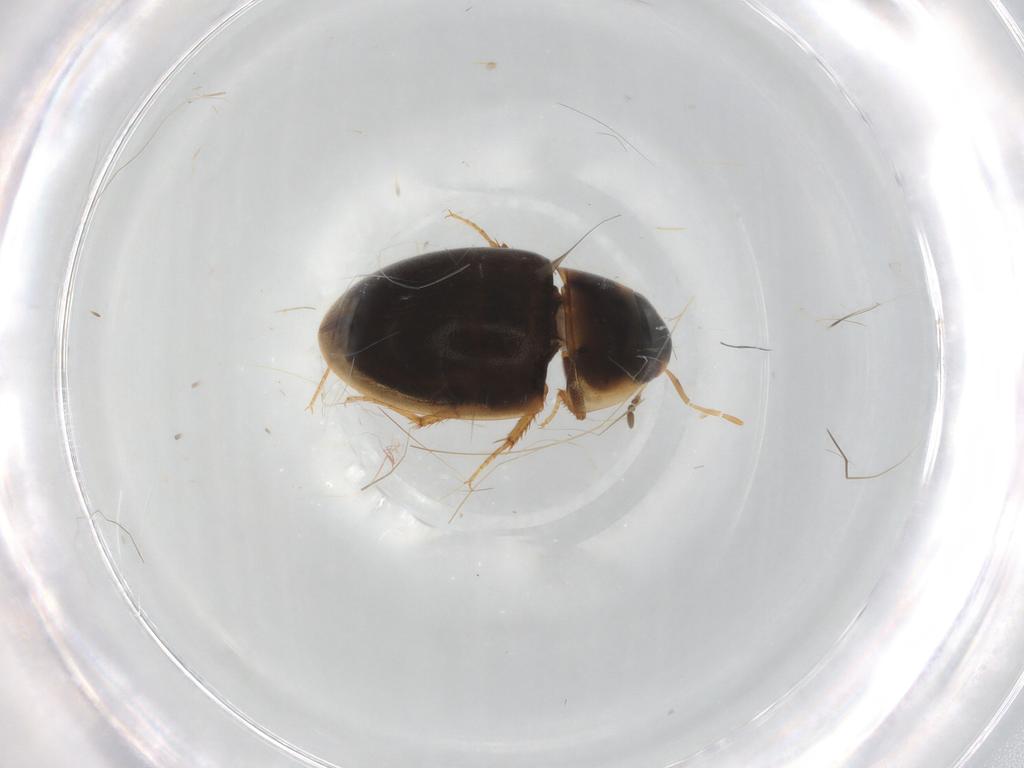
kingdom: Animalia
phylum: Arthropoda
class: Insecta
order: Coleoptera
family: Staphylinidae
